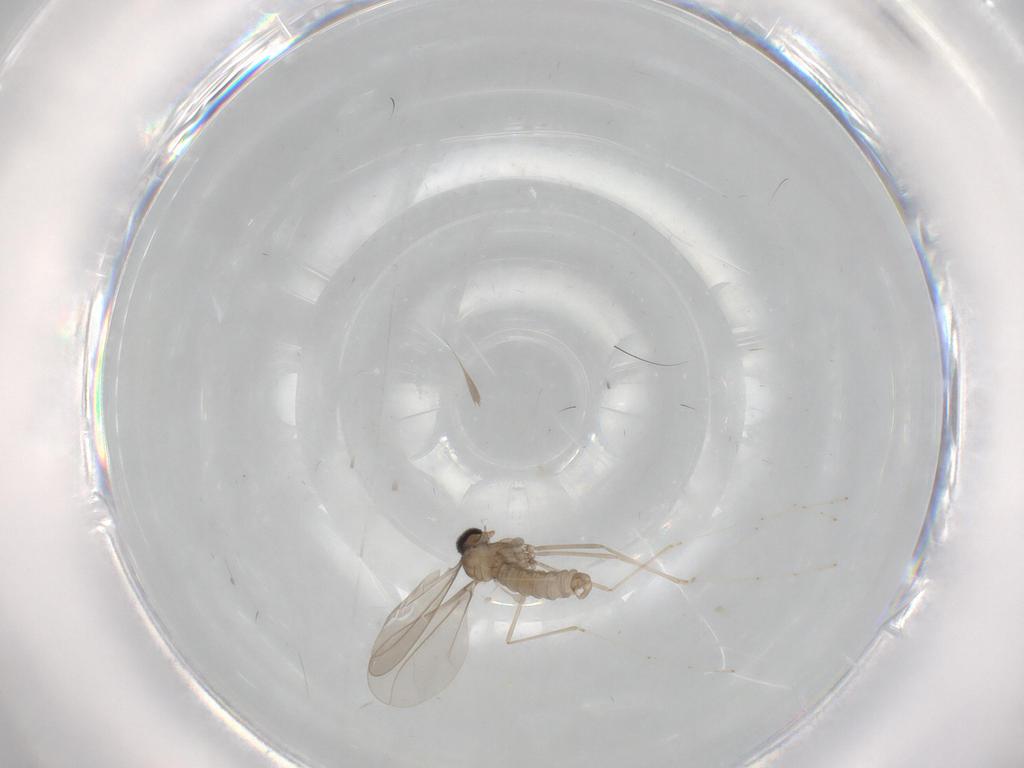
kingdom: Animalia
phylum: Arthropoda
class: Insecta
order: Diptera
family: Cecidomyiidae
